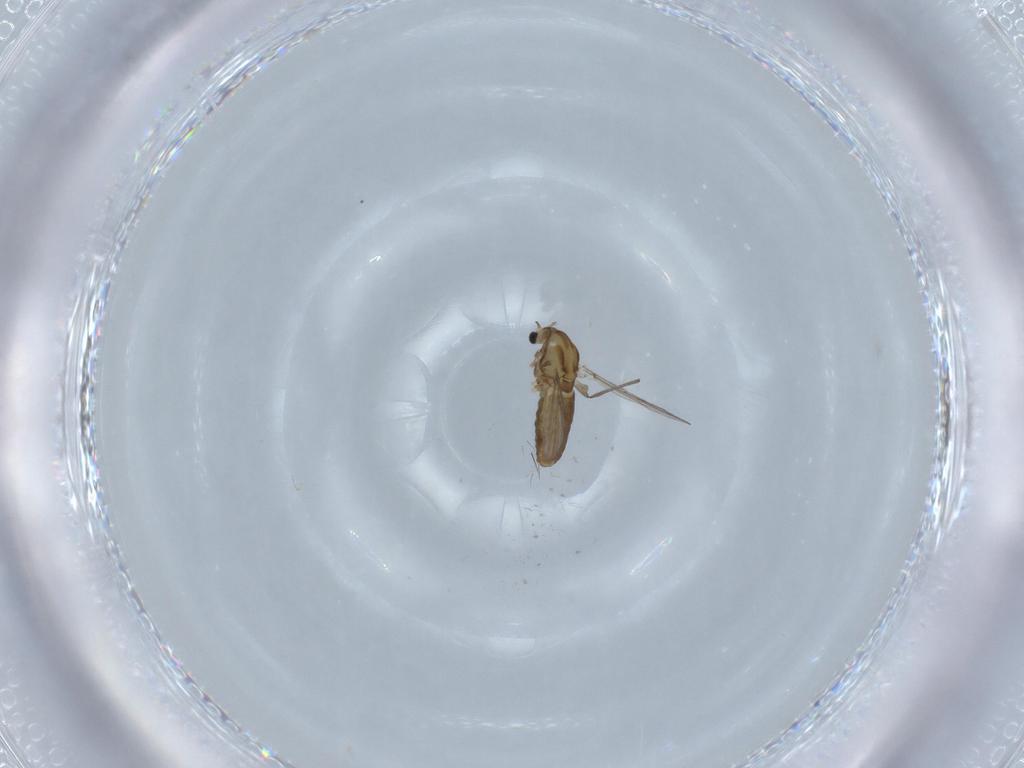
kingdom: Animalia
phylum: Arthropoda
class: Insecta
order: Diptera
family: Chironomidae
